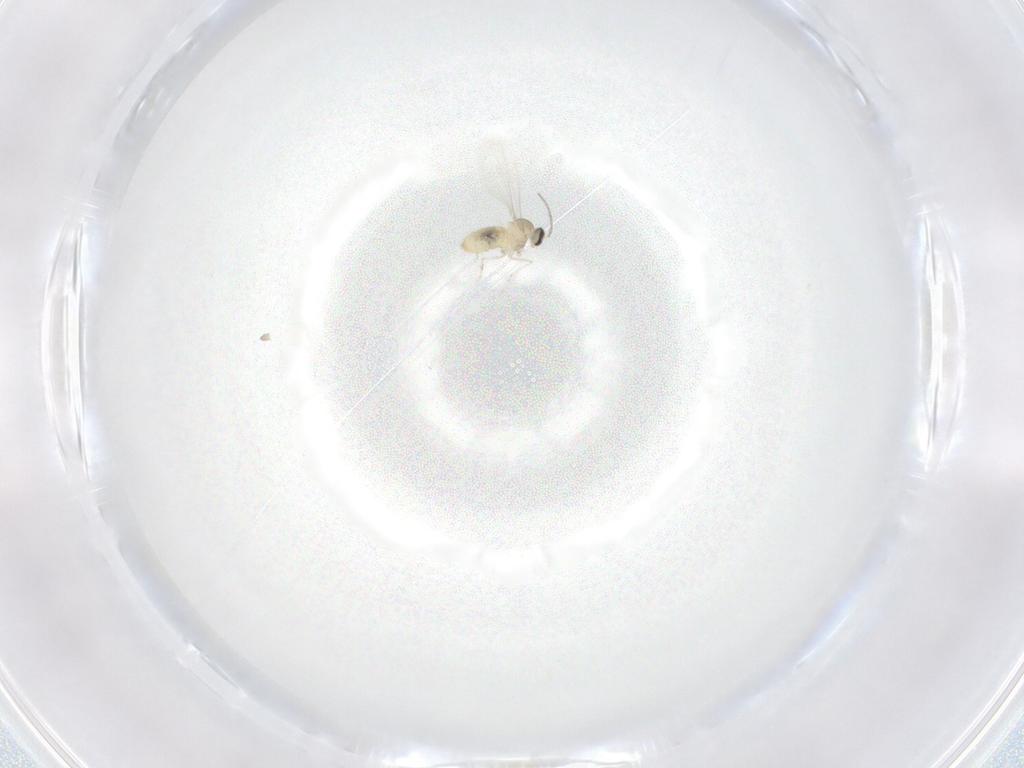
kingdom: Animalia
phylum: Arthropoda
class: Insecta
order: Diptera
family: Cecidomyiidae
